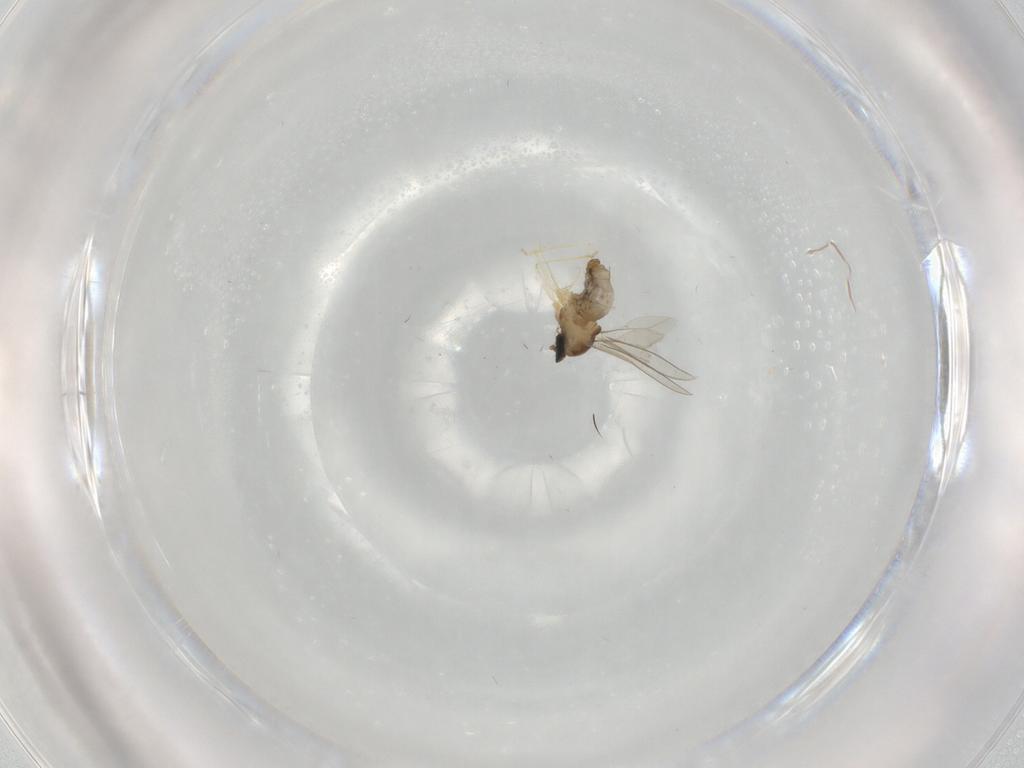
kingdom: Animalia
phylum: Arthropoda
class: Insecta
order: Diptera
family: Cecidomyiidae
